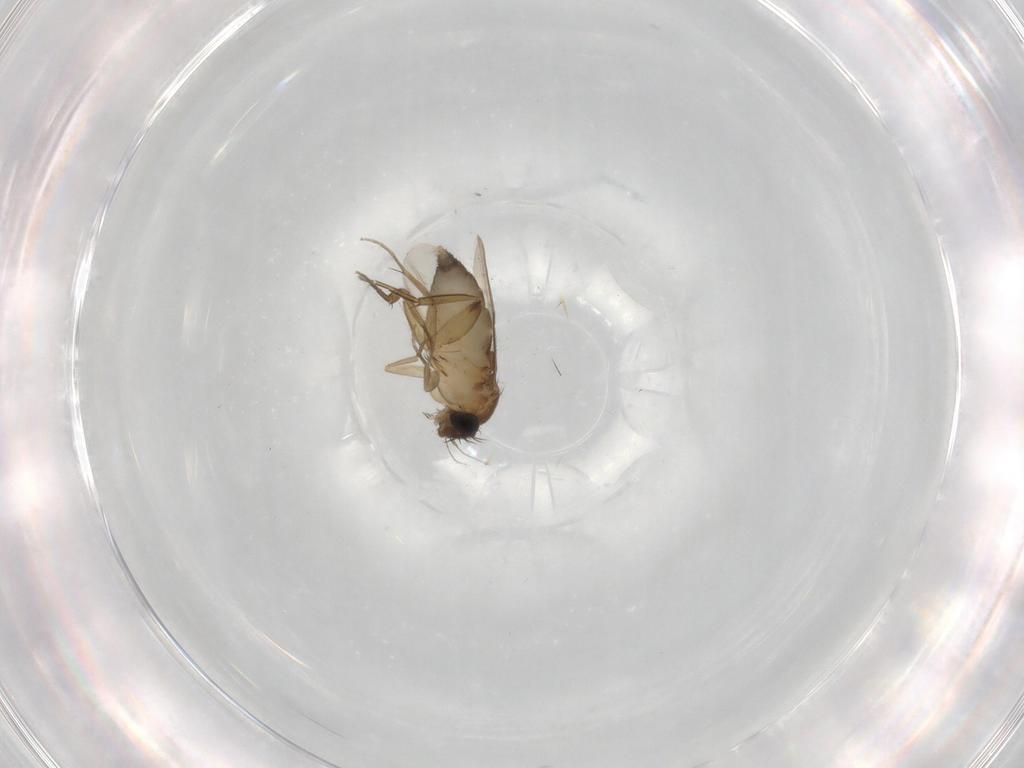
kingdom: Animalia
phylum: Arthropoda
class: Insecta
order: Diptera
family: Phoridae
